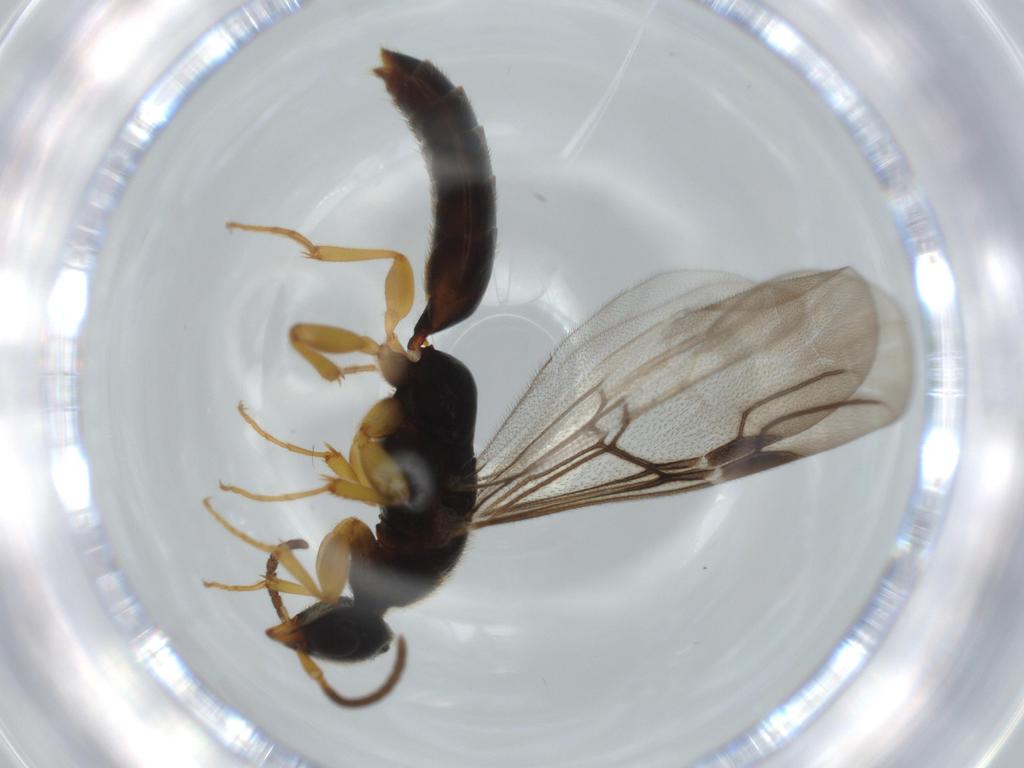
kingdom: Animalia
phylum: Arthropoda
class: Insecta
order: Hymenoptera
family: Bethylidae
